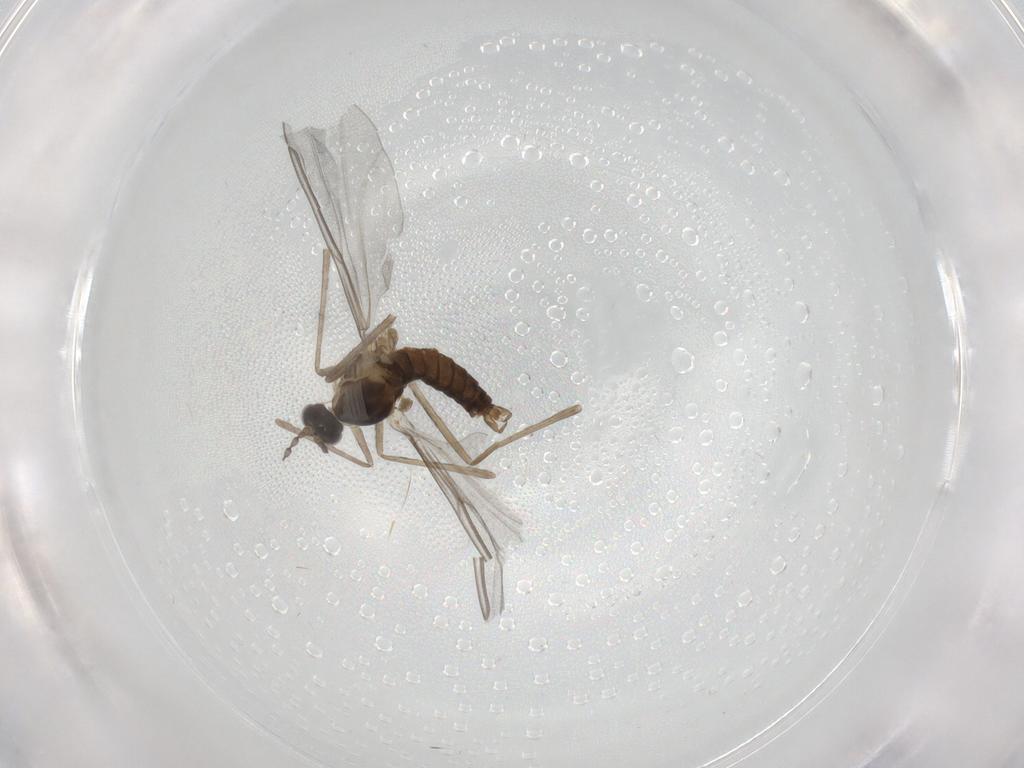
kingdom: Animalia
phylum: Arthropoda
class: Insecta
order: Diptera
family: Cecidomyiidae
